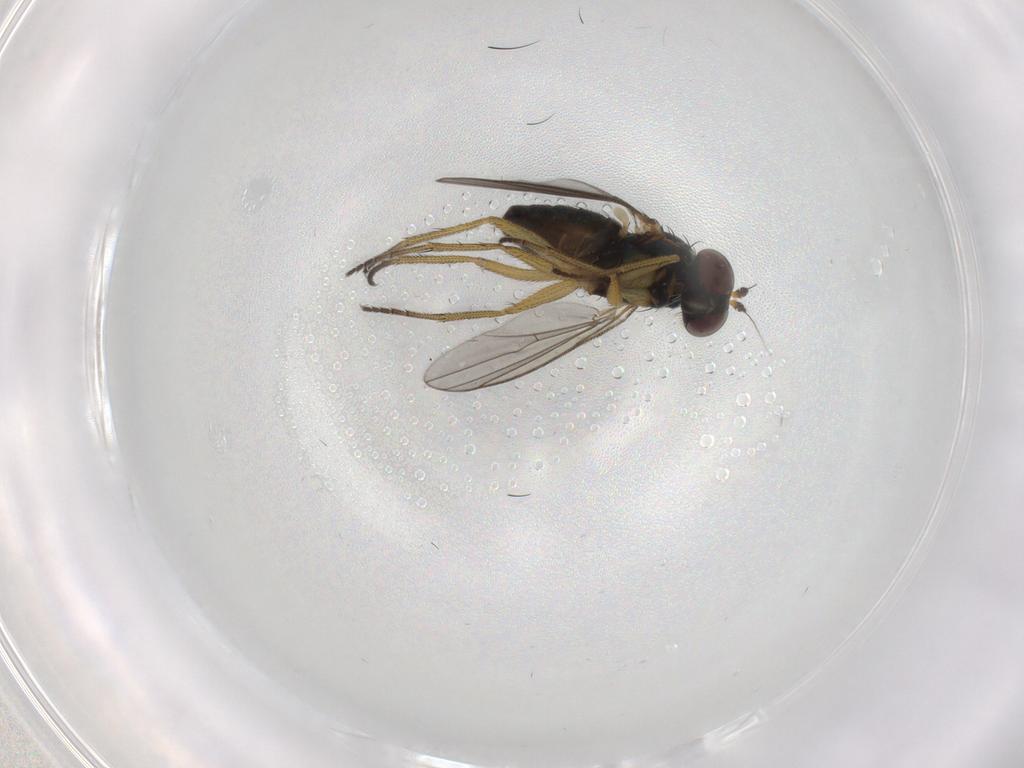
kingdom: Animalia
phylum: Arthropoda
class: Insecta
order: Diptera
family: Dolichopodidae
